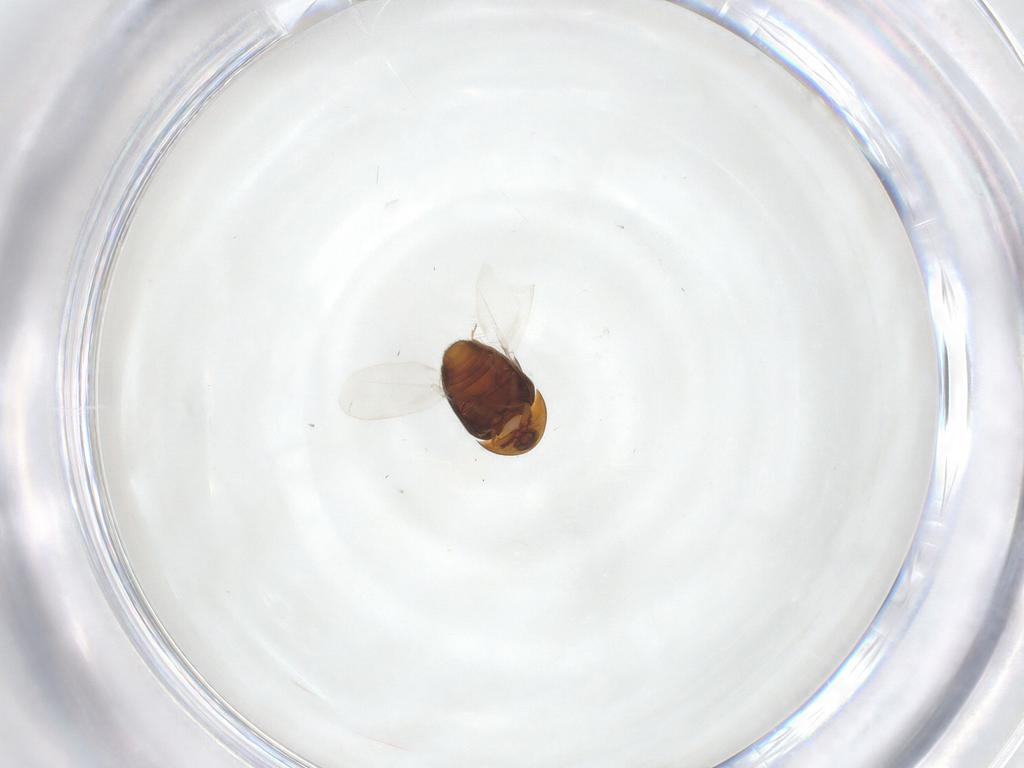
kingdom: Animalia
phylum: Arthropoda
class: Insecta
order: Coleoptera
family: Corylophidae
